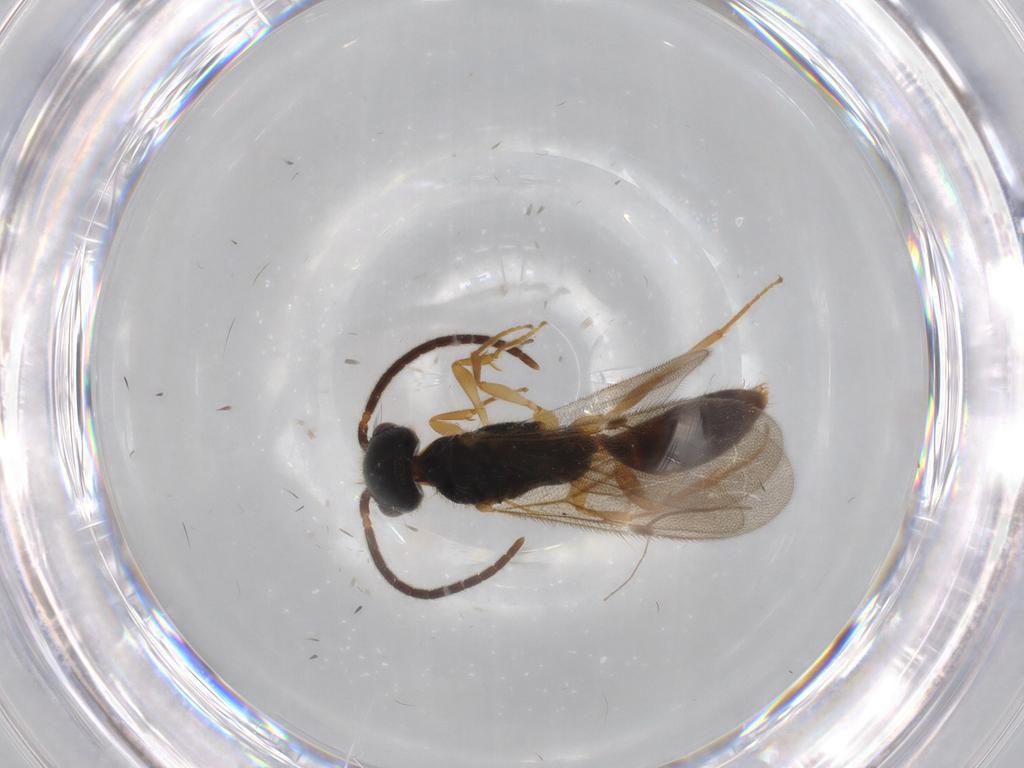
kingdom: Animalia
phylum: Arthropoda
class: Insecta
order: Hymenoptera
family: Bethylidae
